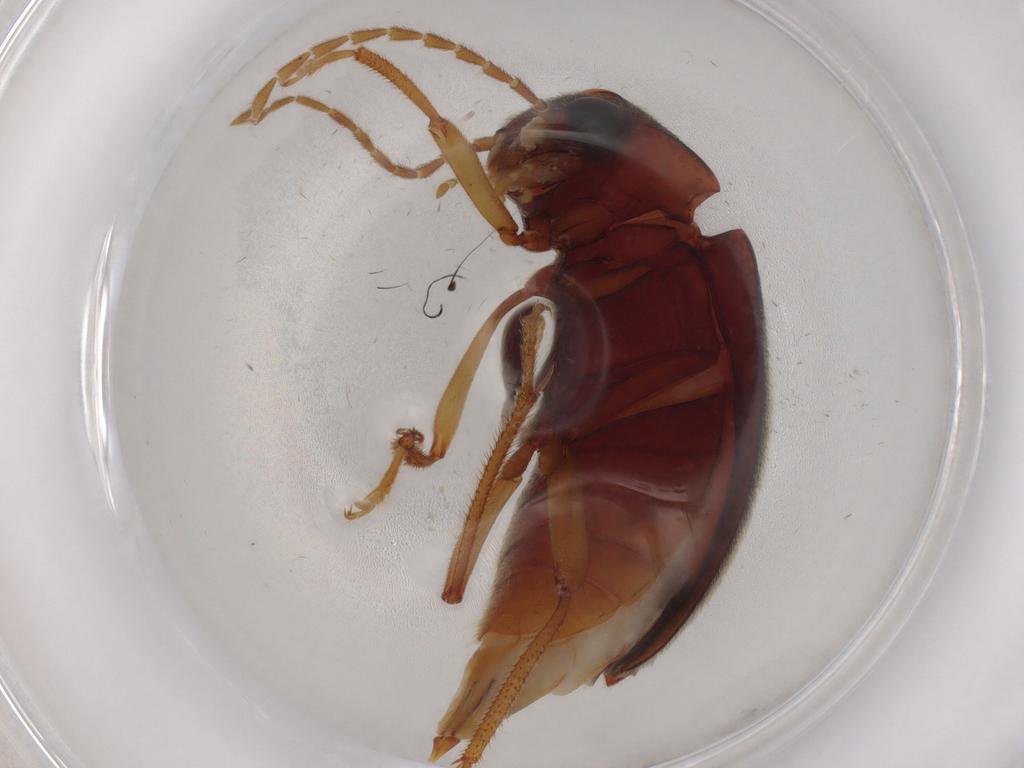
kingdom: Animalia
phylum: Arthropoda
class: Insecta
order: Coleoptera
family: Ptilodactylidae
